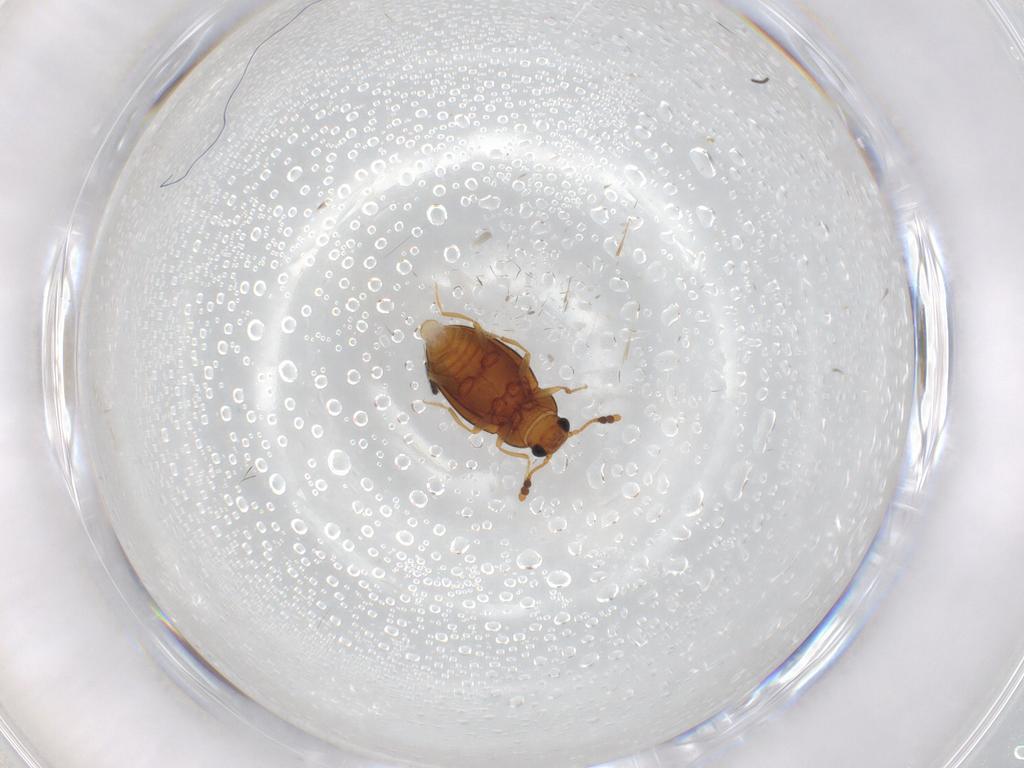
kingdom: Animalia
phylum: Arthropoda
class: Insecta
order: Coleoptera
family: Erotylidae
